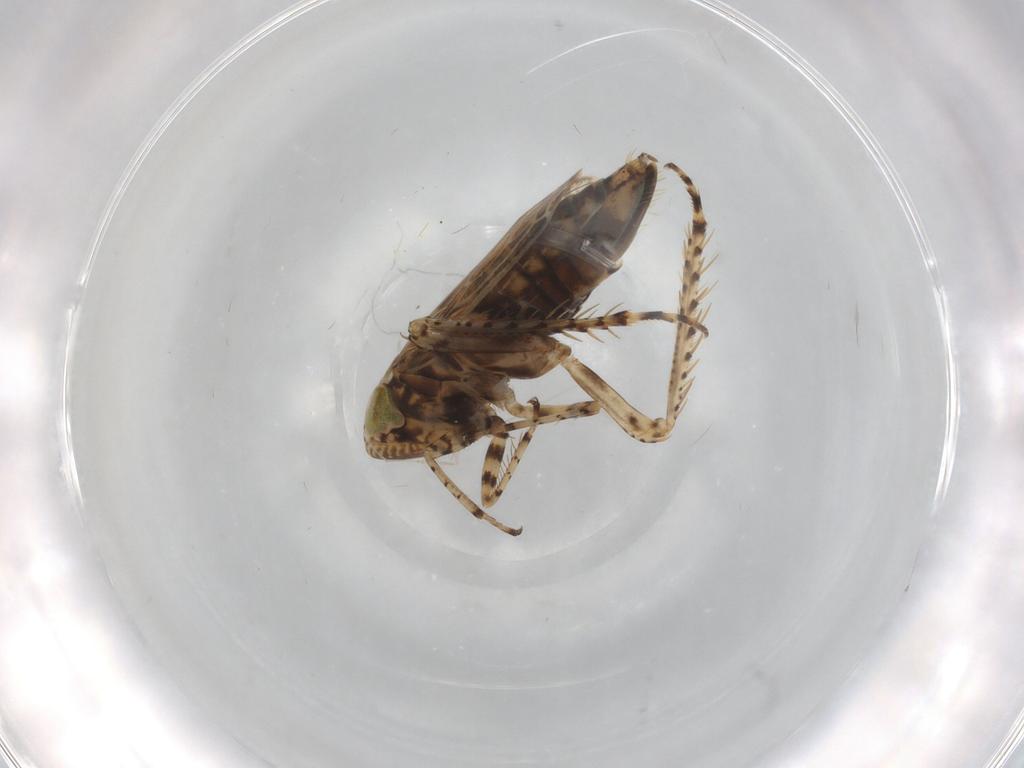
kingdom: Animalia
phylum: Arthropoda
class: Insecta
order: Hemiptera
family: Cicadellidae
